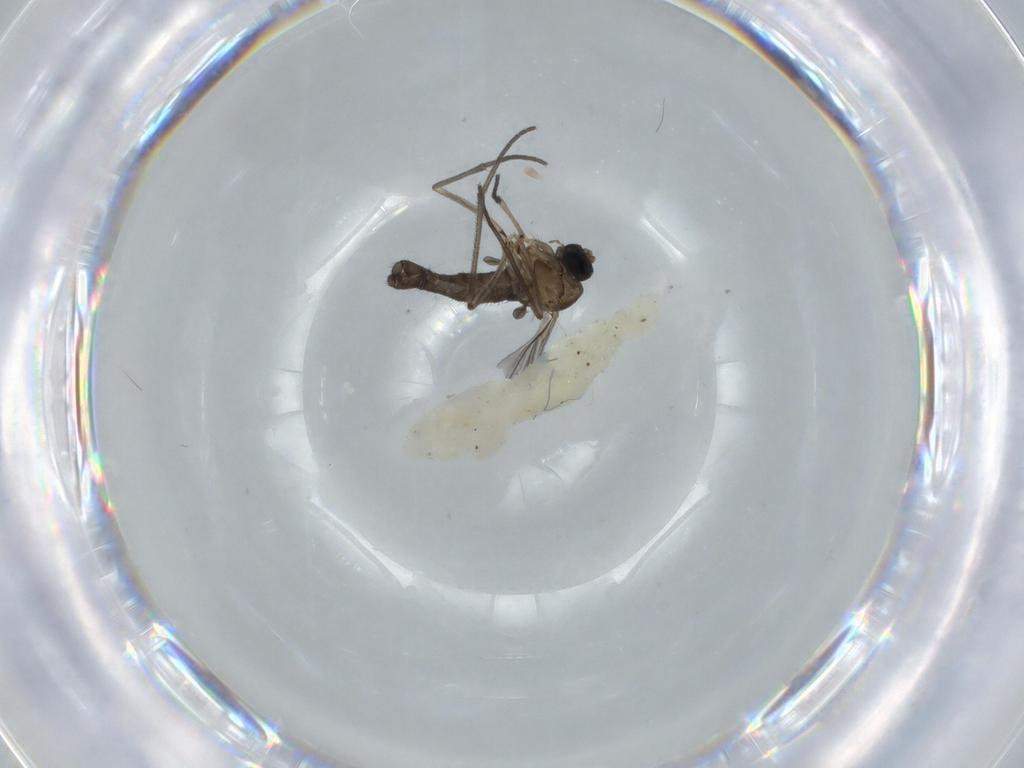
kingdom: Animalia
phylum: Arthropoda
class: Insecta
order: Diptera
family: Sciaridae
